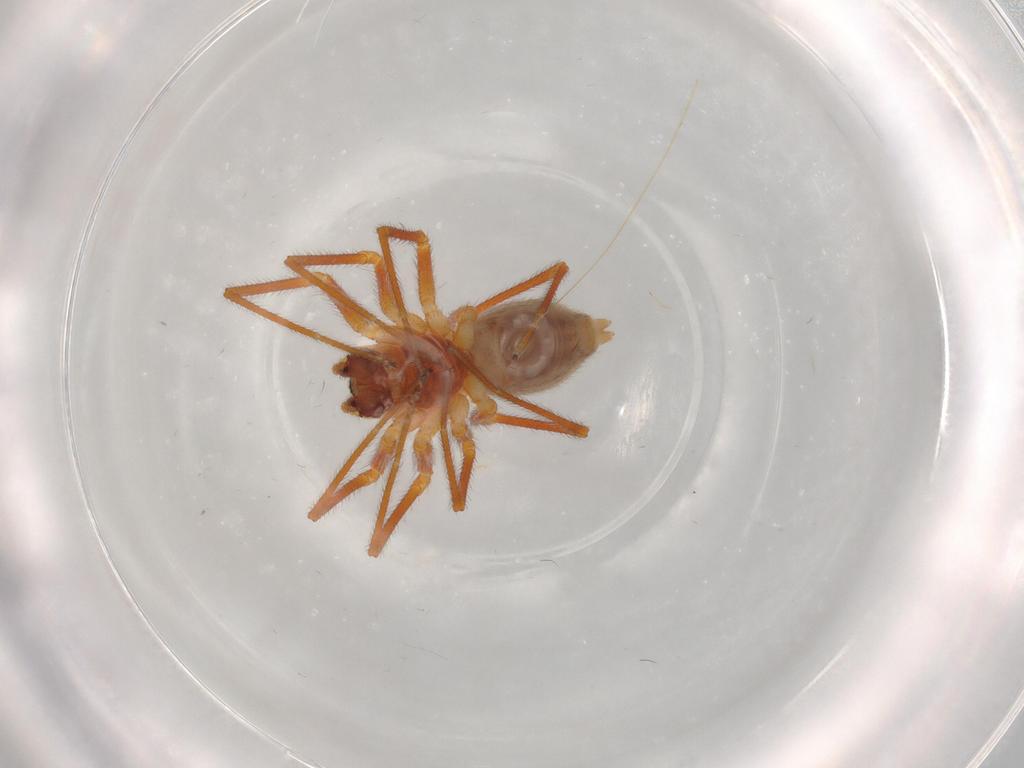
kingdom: Animalia
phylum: Arthropoda
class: Arachnida
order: Araneae
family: Linyphiidae
